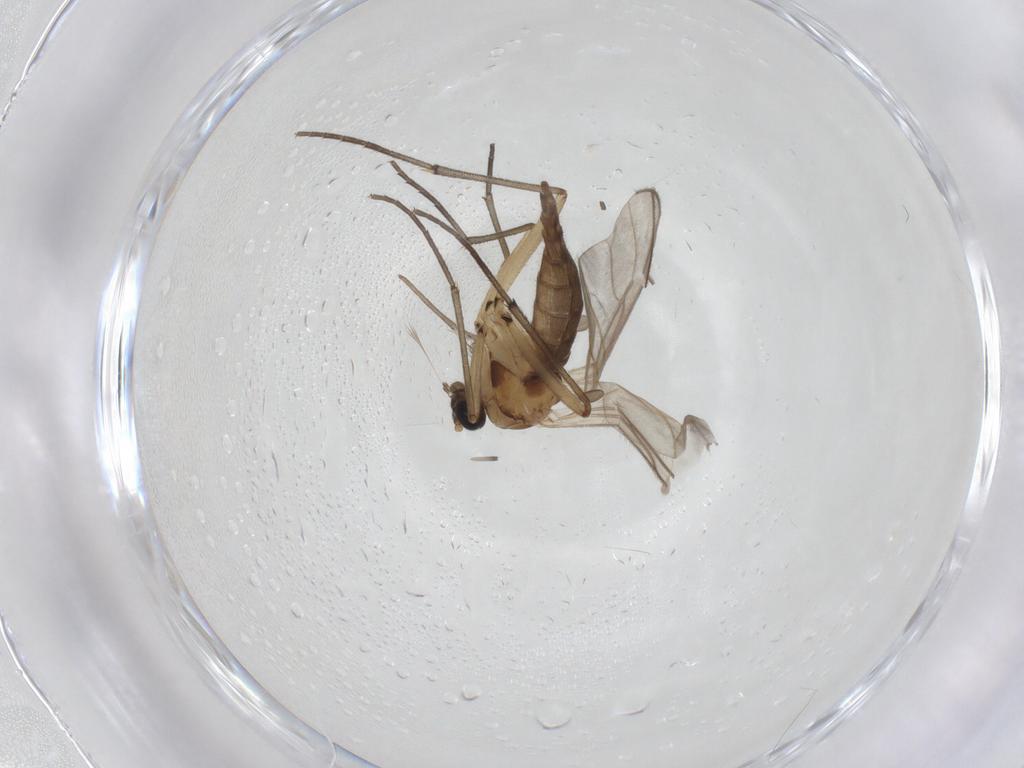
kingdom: Animalia
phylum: Arthropoda
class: Insecta
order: Diptera
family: Sciaridae
